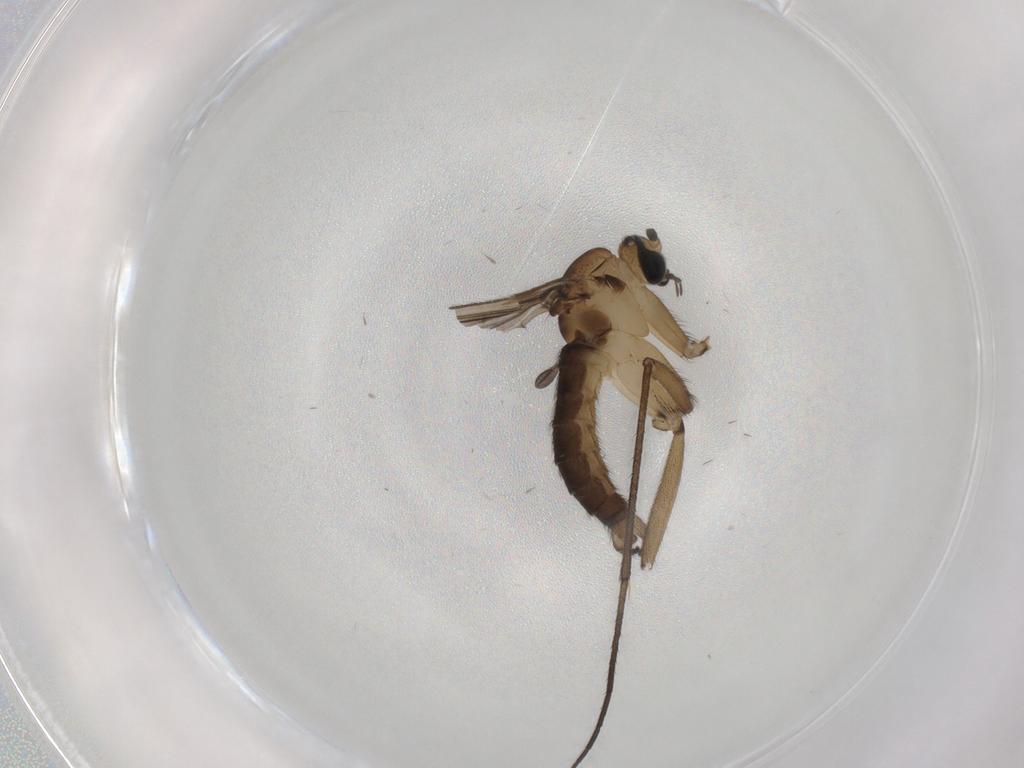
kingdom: Animalia
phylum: Arthropoda
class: Insecta
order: Diptera
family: Sciaridae
